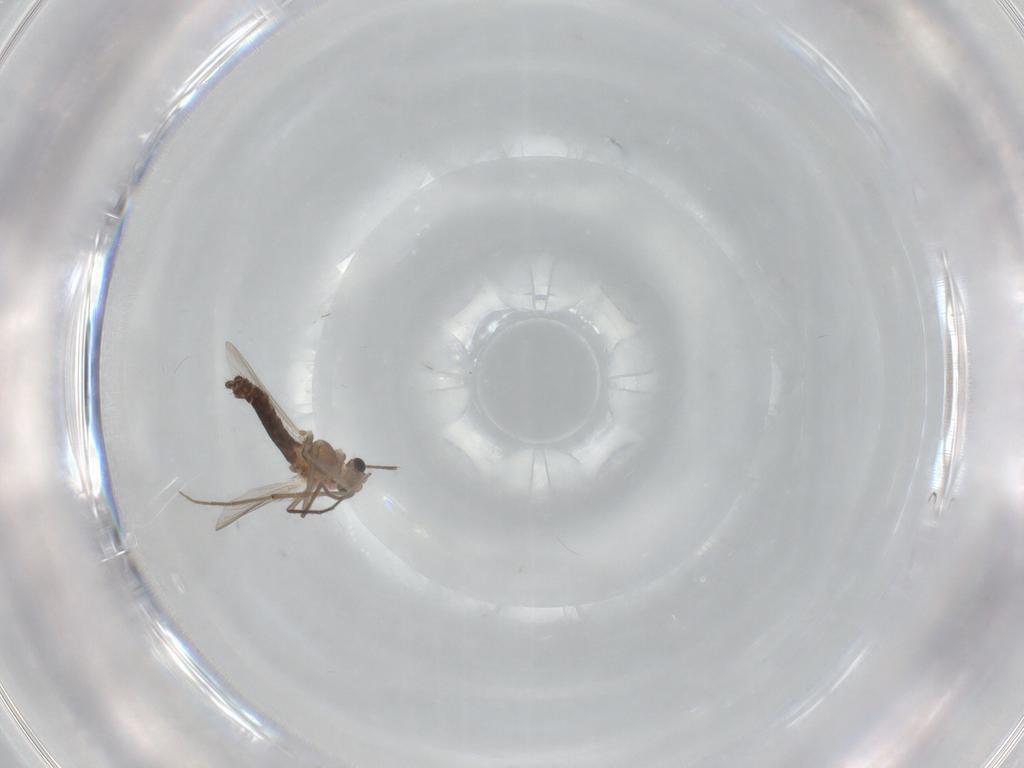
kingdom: Animalia
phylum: Arthropoda
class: Insecta
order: Diptera
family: Chironomidae
